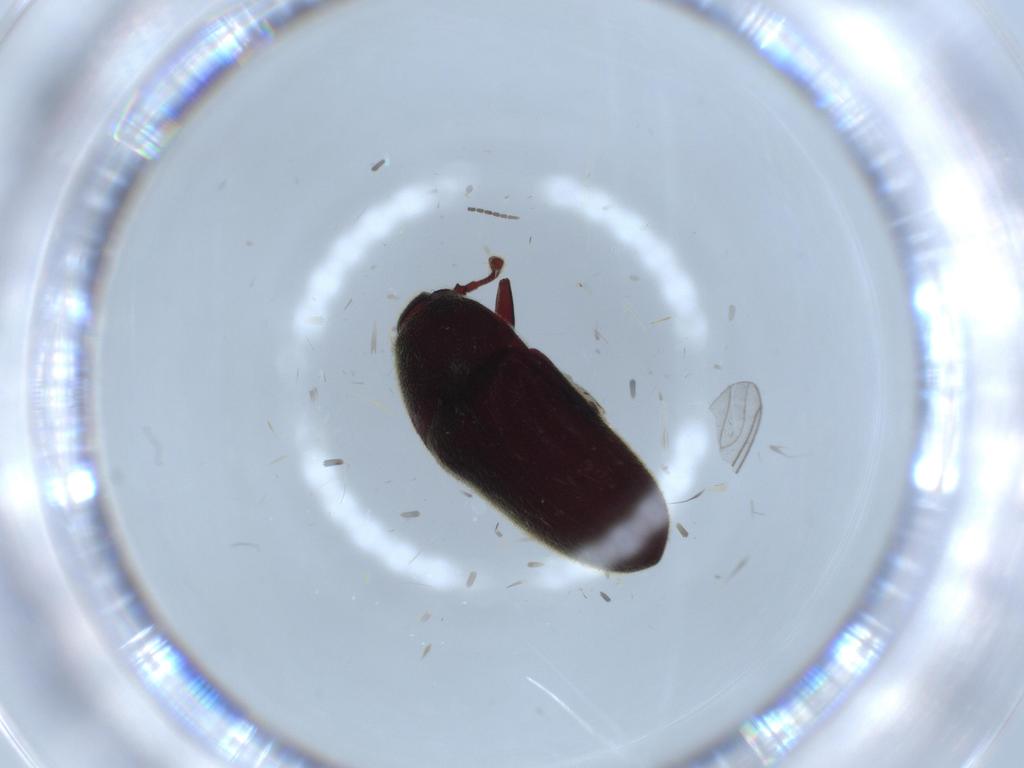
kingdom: Animalia
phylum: Arthropoda
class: Insecta
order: Coleoptera
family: Throscidae
